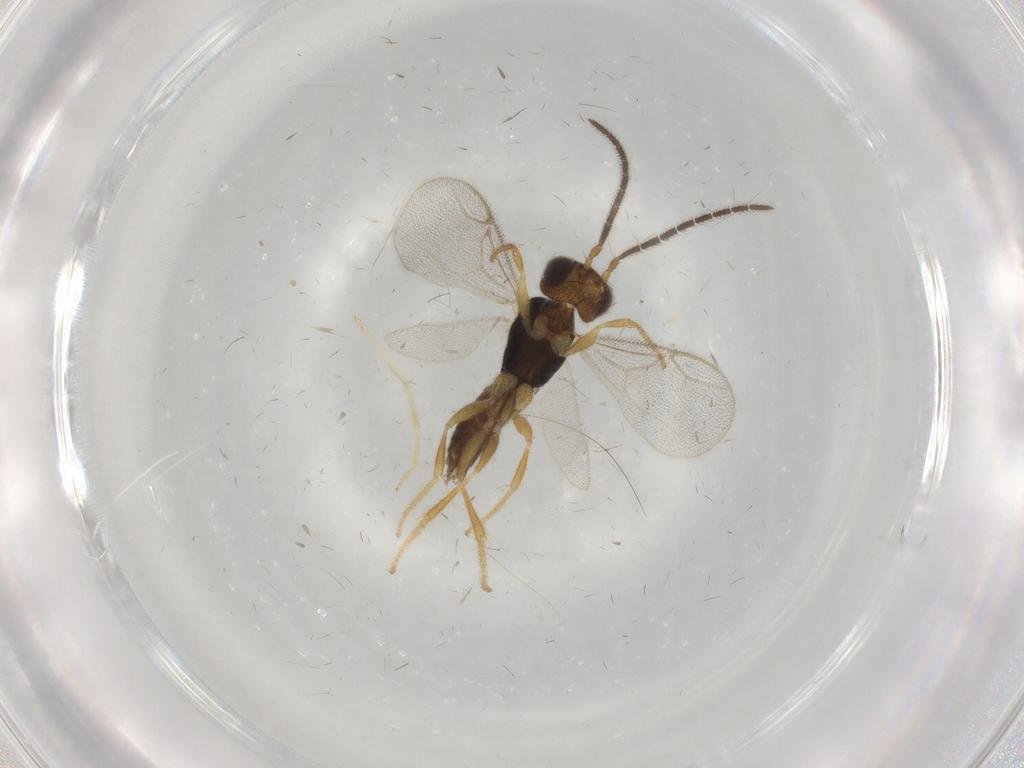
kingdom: Animalia
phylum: Arthropoda
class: Insecta
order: Hymenoptera
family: Dryinidae
